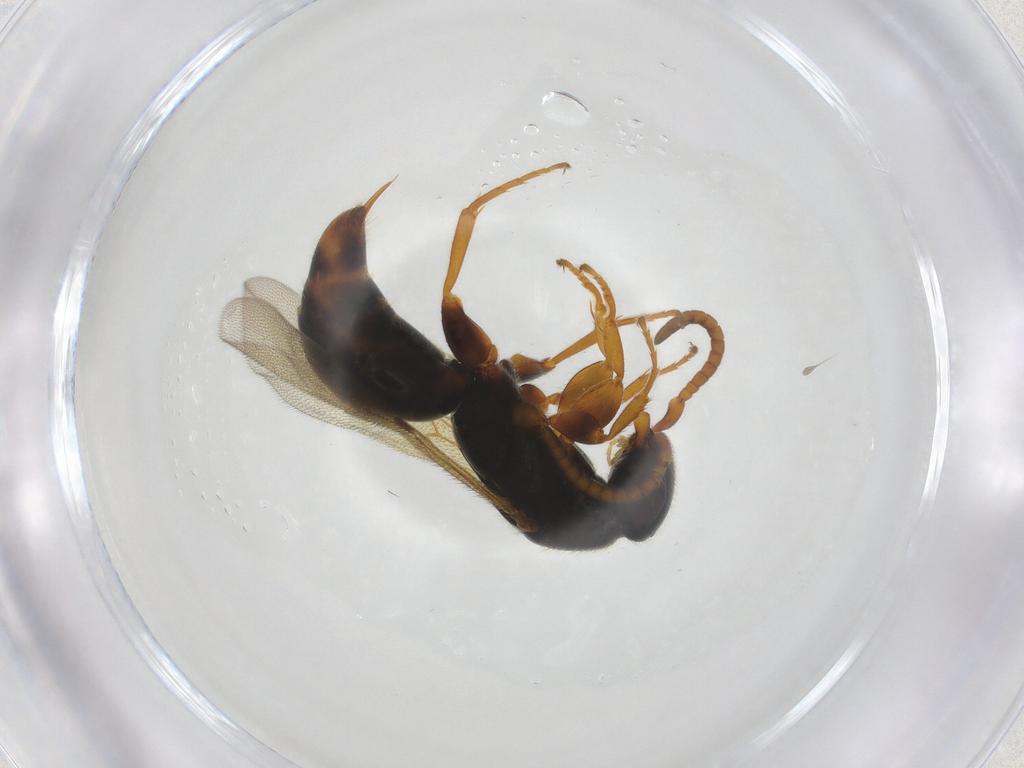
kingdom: Animalia
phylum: Arthropoda
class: Insecta
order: Hymenoptera
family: Bethylidae
